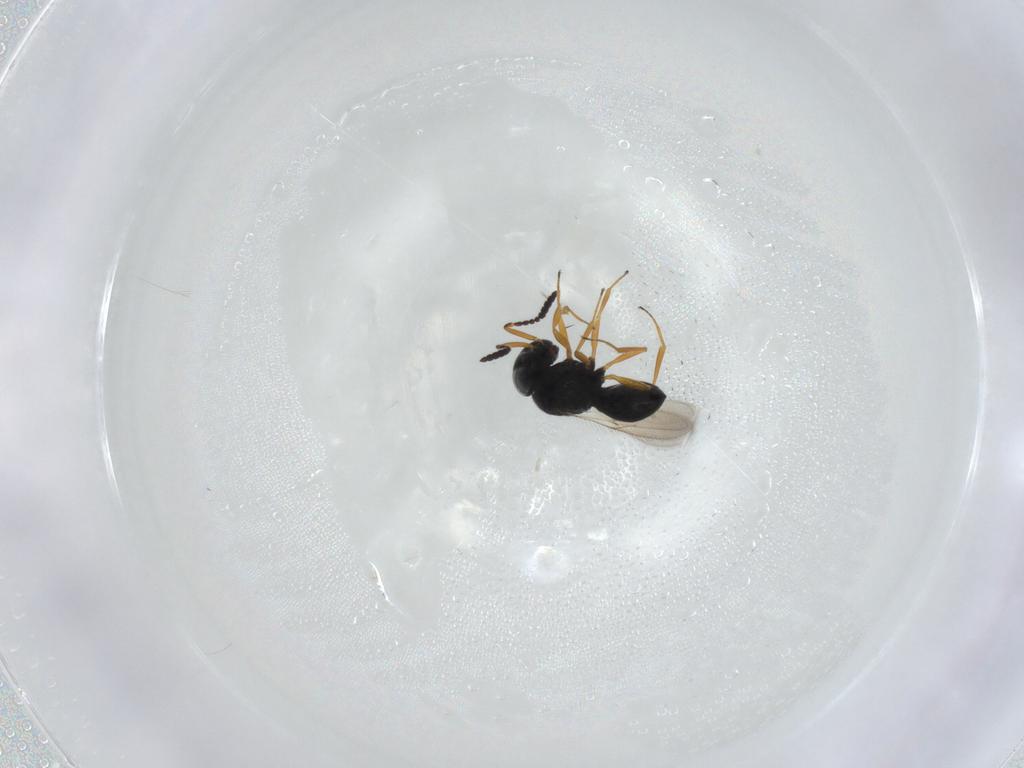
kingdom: Animalia
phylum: Arthropoda
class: Insecta
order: Hymenoptera
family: Scelionidae
